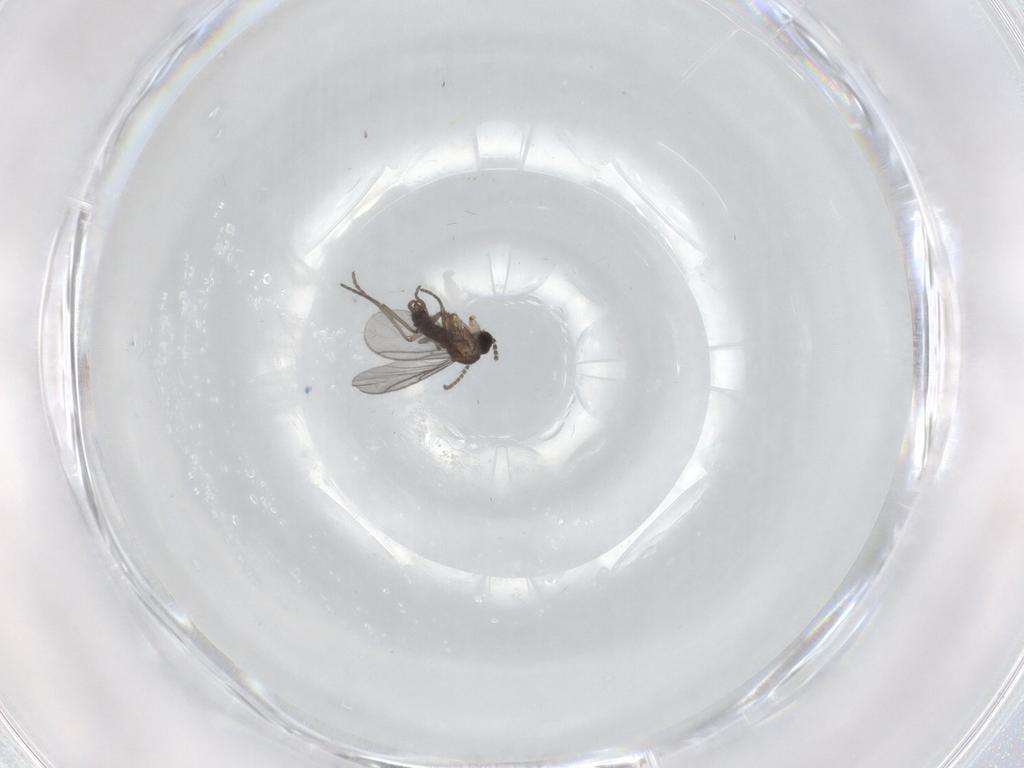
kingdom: Animalia
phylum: Arthropoda
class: Insecta
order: Diptera
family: Sciaridae
